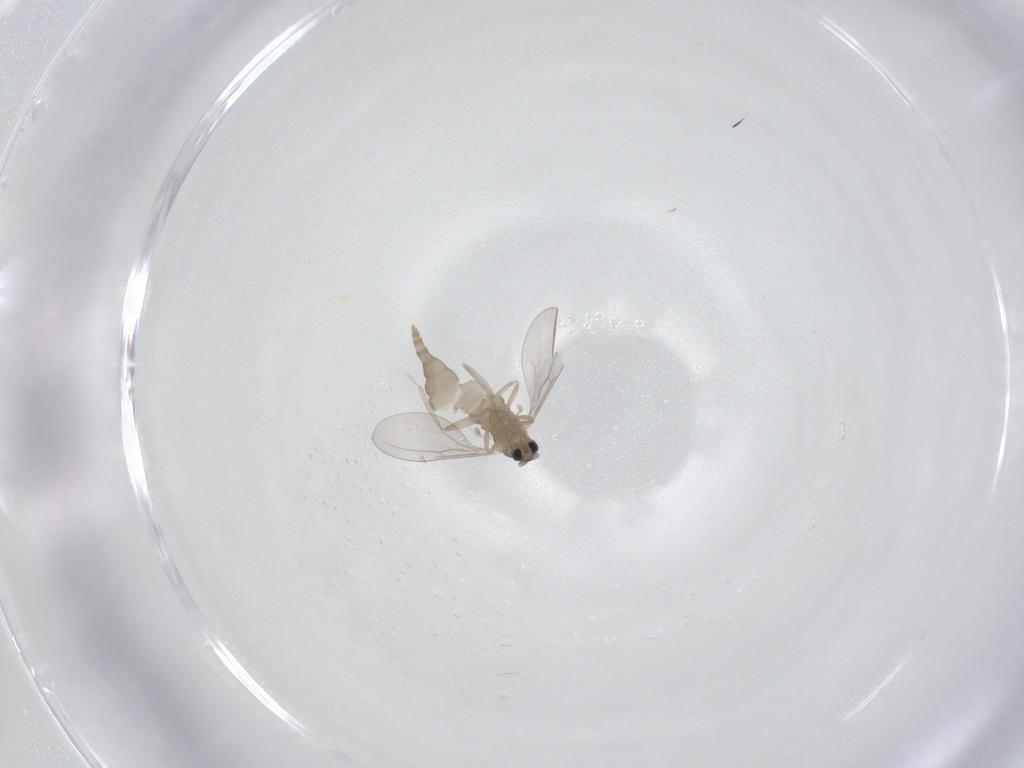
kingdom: Animalia
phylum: Arthropoda
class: Insecta
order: Diptera
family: Cecidomyiidae
